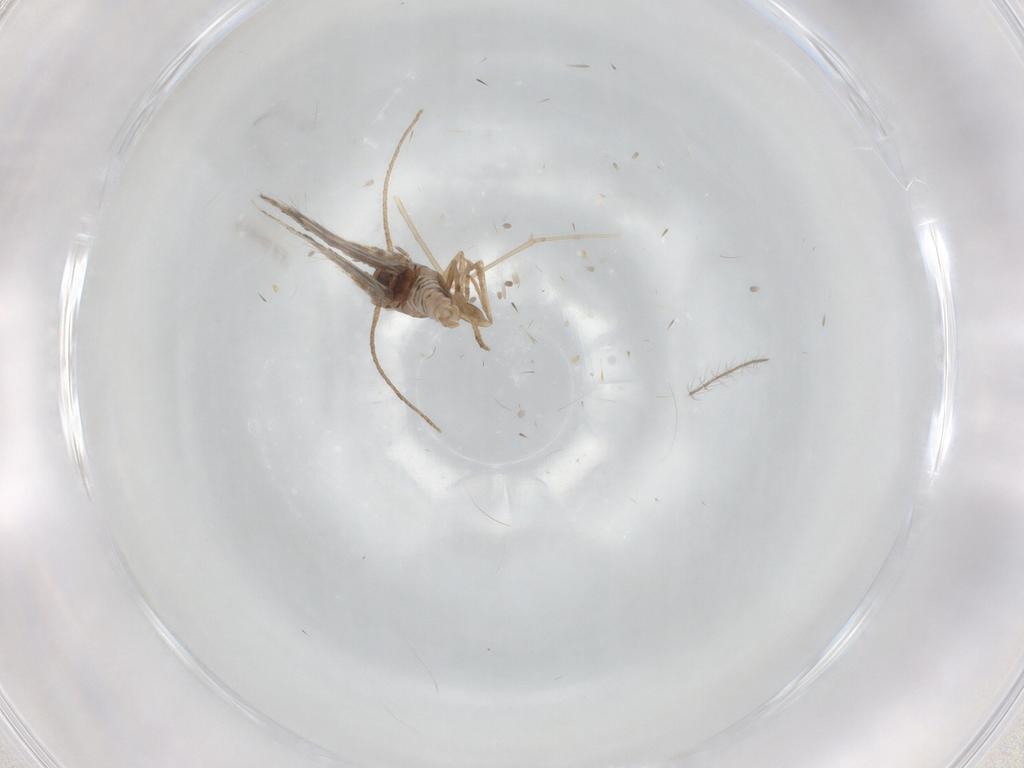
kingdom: Animalia
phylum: Arthropoda
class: Insecta
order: Lepidoptera
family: Elachistidae
